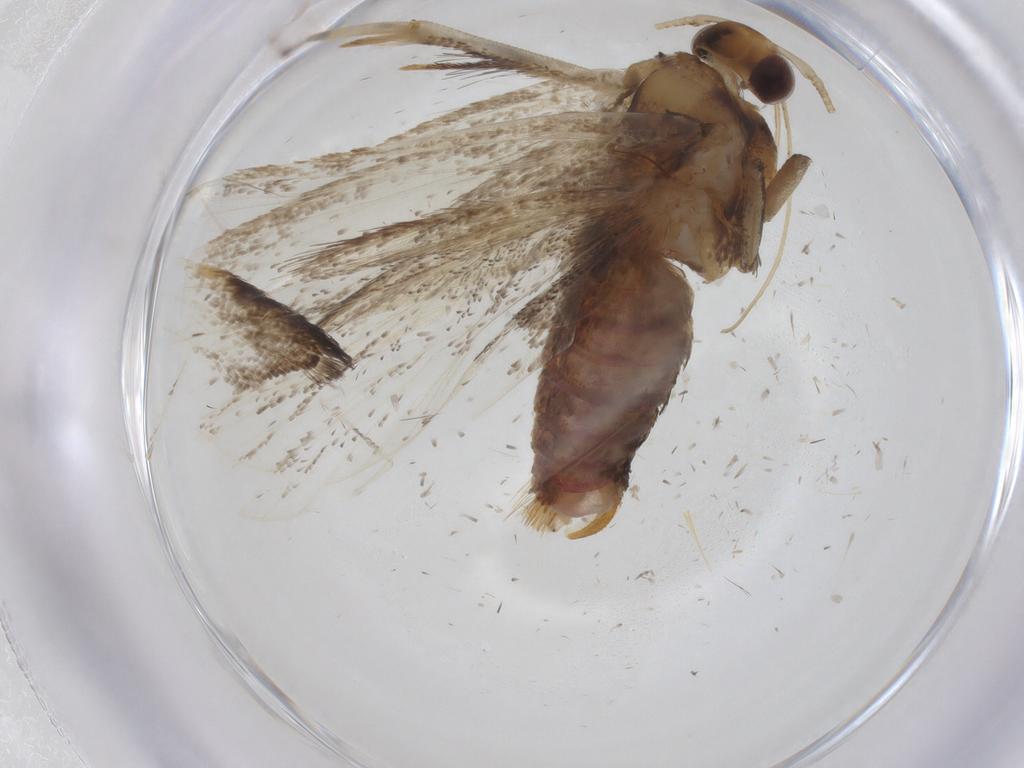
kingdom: Animalia
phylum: Arthropoda
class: Insecta
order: Lepidoptera
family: Lecithoceridae
